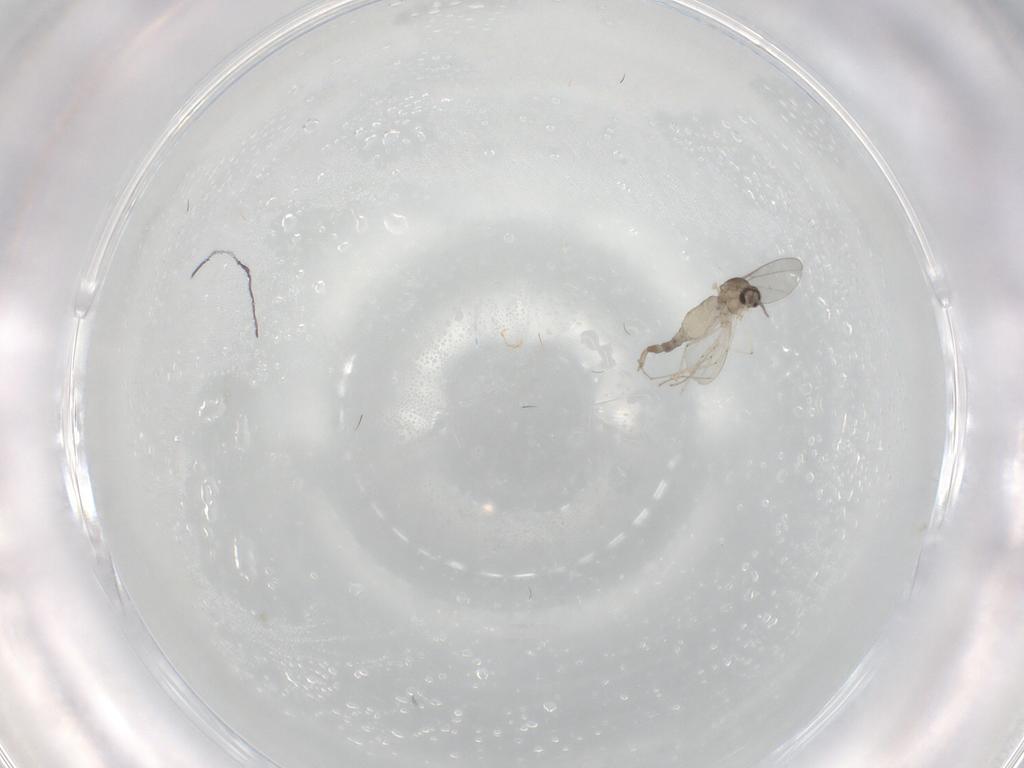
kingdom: Animalia
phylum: Arthropoda
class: Insecta
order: Diptera
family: Cecidomyiidae
